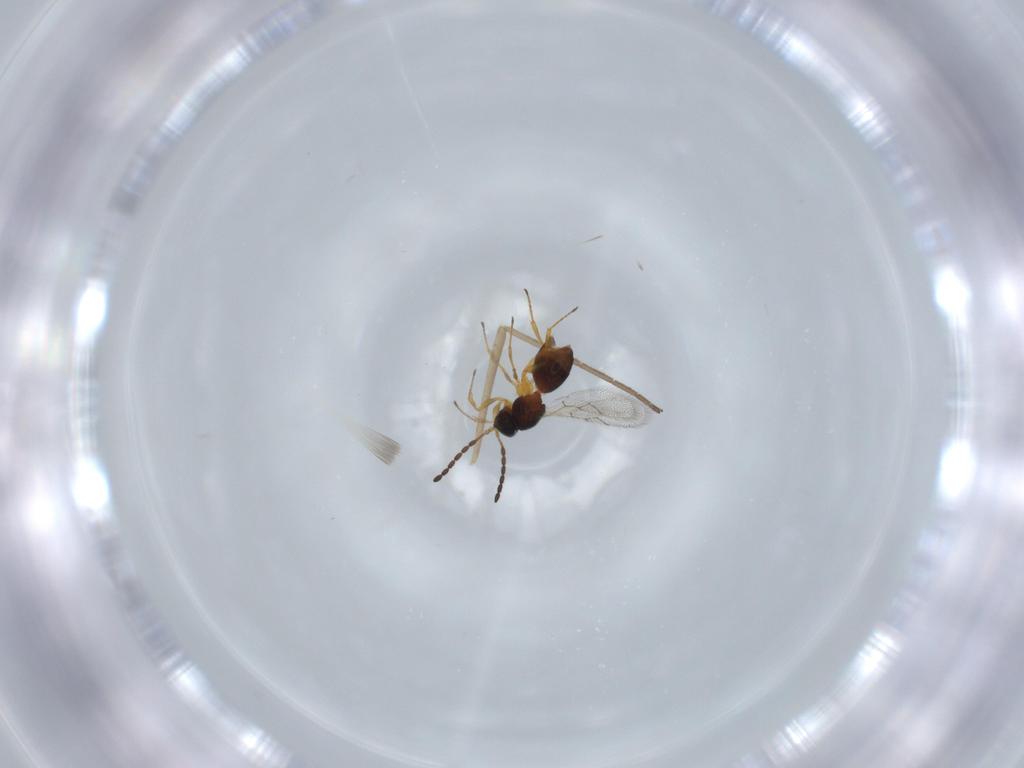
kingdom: Animalia
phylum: Arthropoda
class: Insecta
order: Hymenoptera
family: Figitidae
